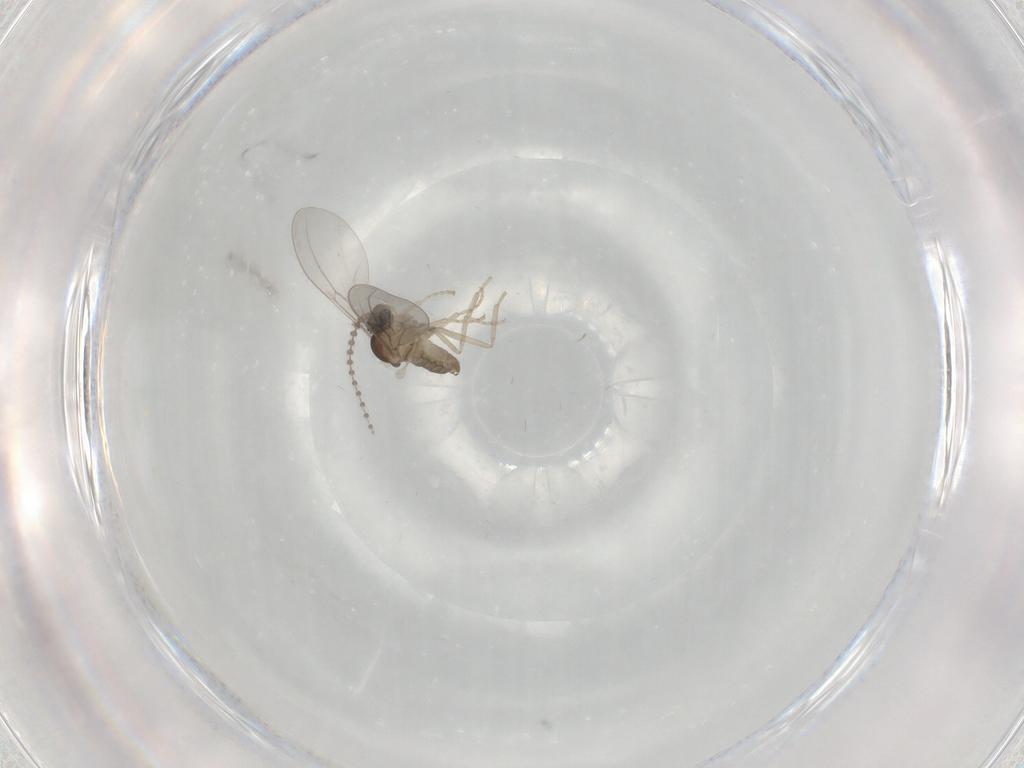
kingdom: Animalia
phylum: Arthropoda
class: Insecta
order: Diptera
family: Cecidomyiidae
